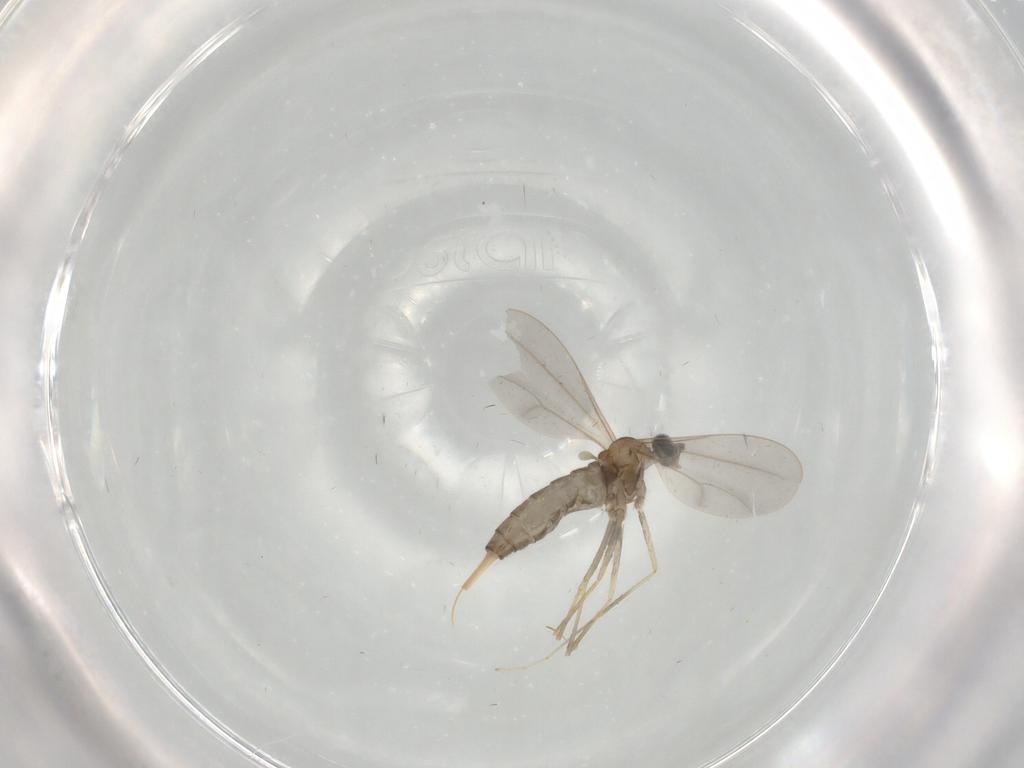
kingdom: Animalia
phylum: Arthropoda
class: Insecta
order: Diptera
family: Cecidomyiidae
